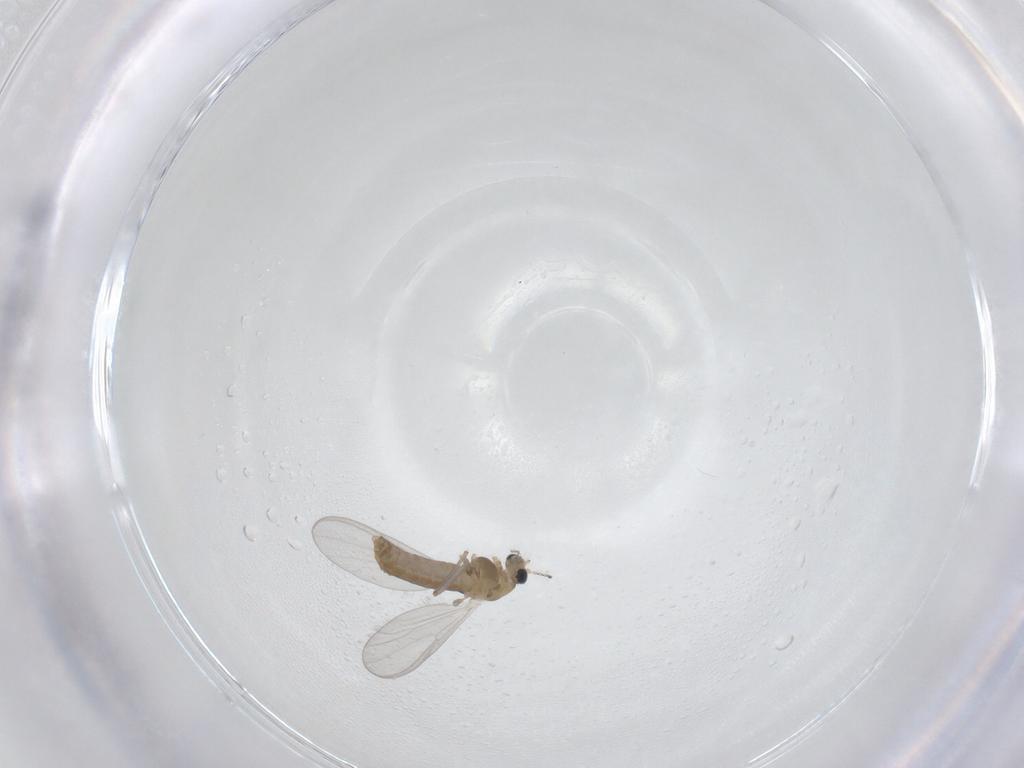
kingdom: Animalia
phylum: Arthropoda
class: Insecta
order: Diptera
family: Chironomidae
